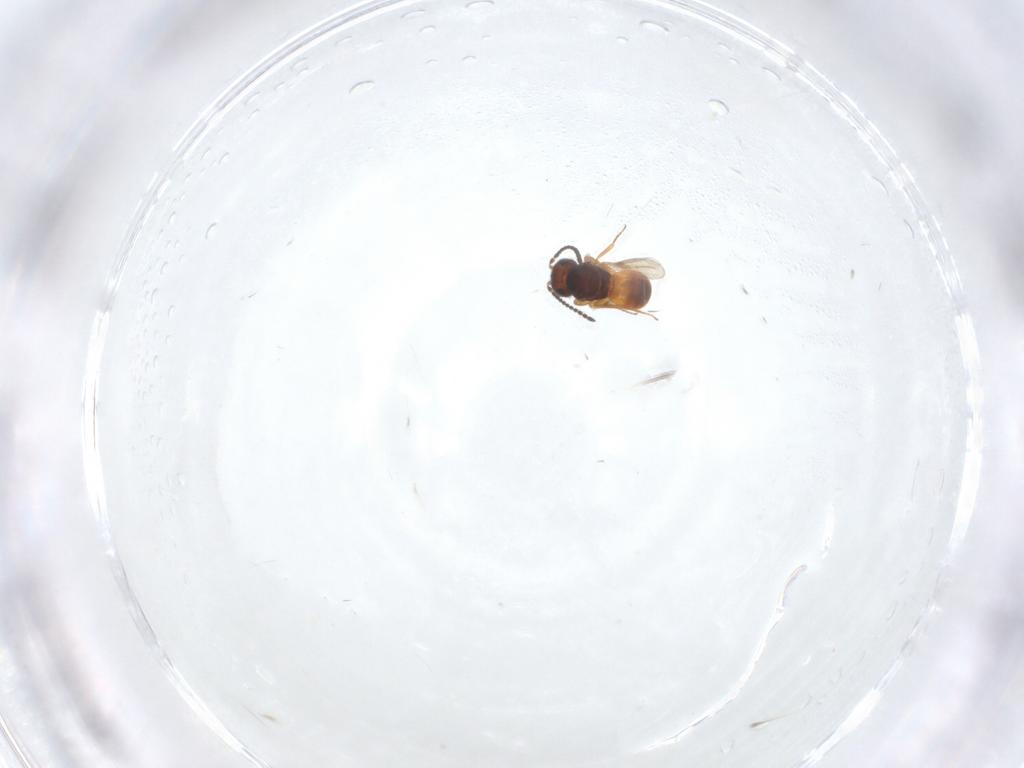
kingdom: Animalia
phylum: Arthropoda
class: Insecta
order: Hymenoptera
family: Scelionidae
